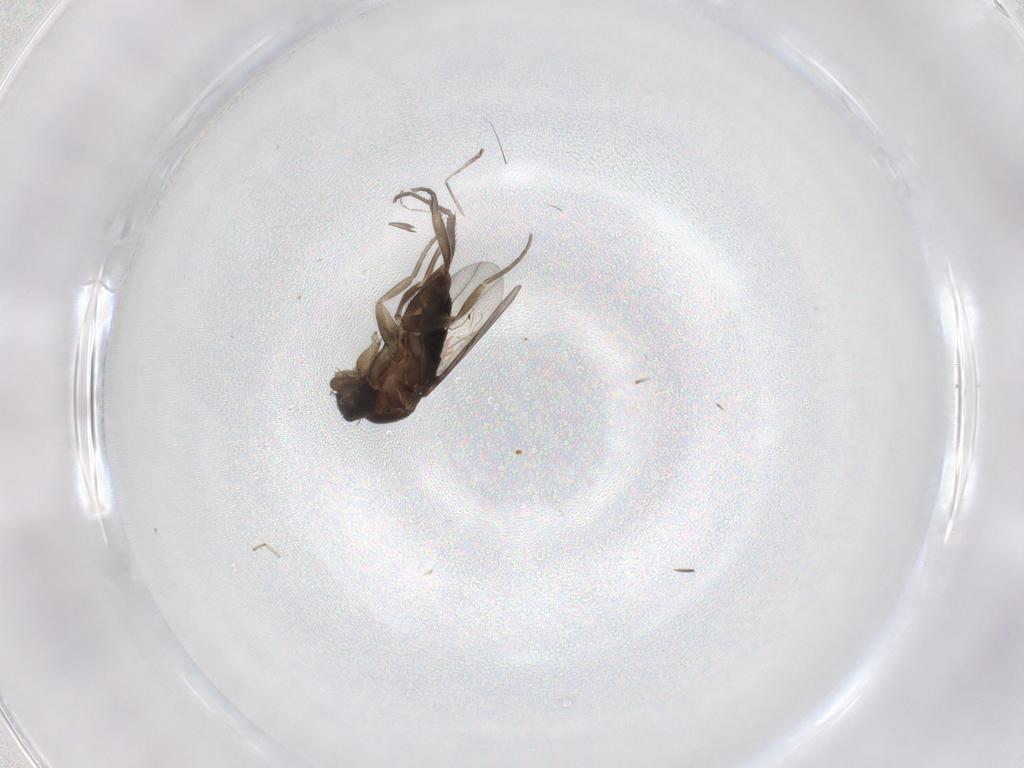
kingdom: Animalia
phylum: Arthropoda
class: Insecta
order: Diptera
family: Phoridae
